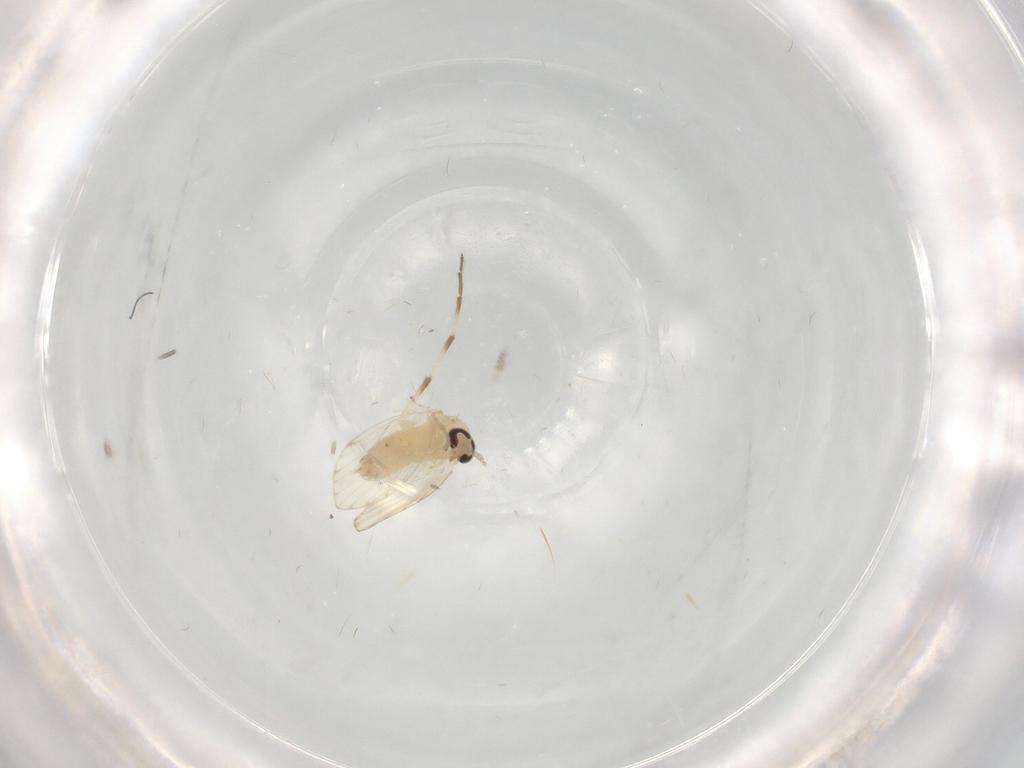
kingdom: Animalia
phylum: Arthropoda
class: Insecta
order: Diptera
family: Psychodidae
